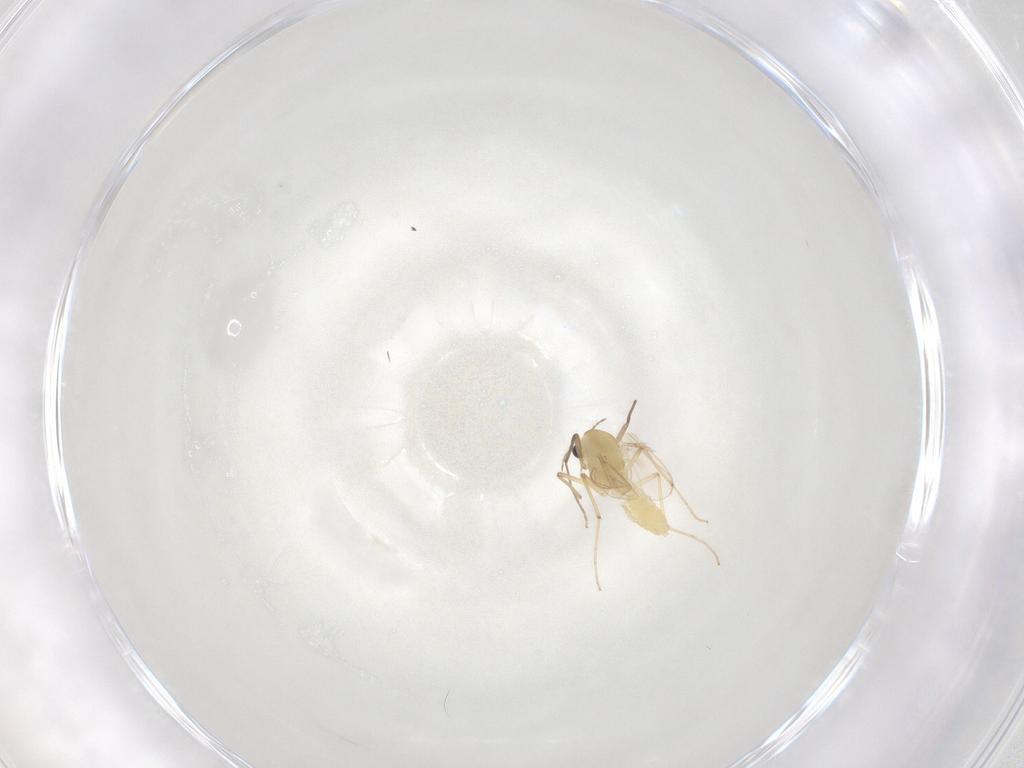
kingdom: Animalia
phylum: Arthropoda
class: Insecta
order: Diptera
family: Chironomidae
